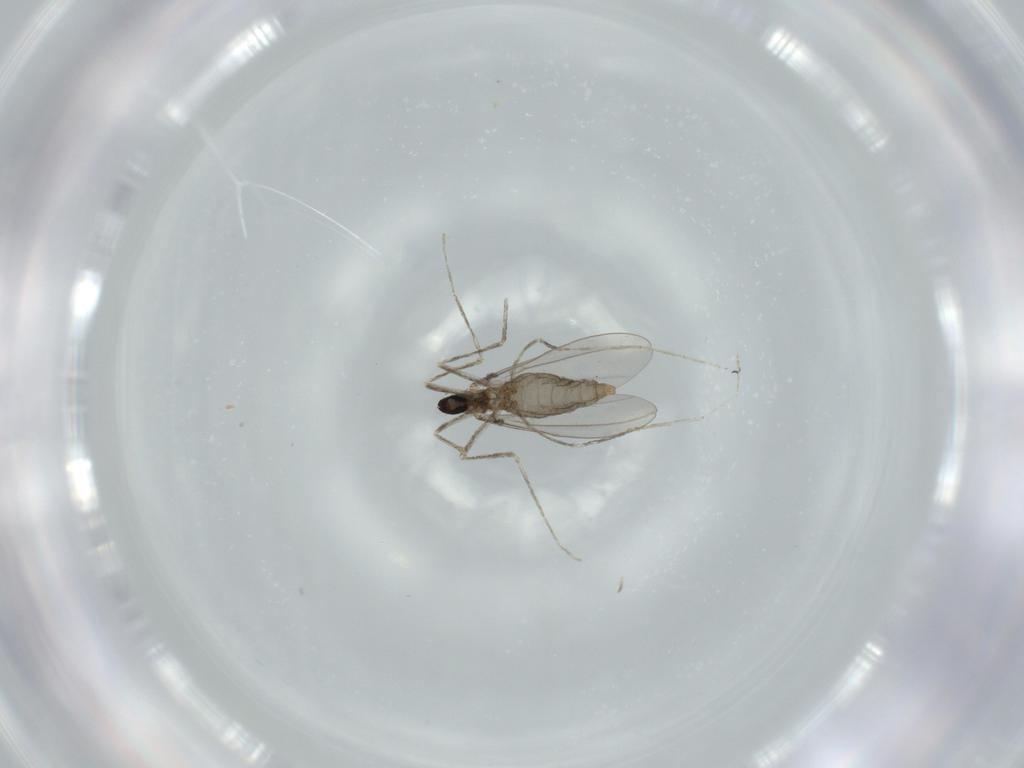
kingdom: Animalia
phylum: Arthropoda
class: Insecta
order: Diptera
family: Cecidomyiidae
